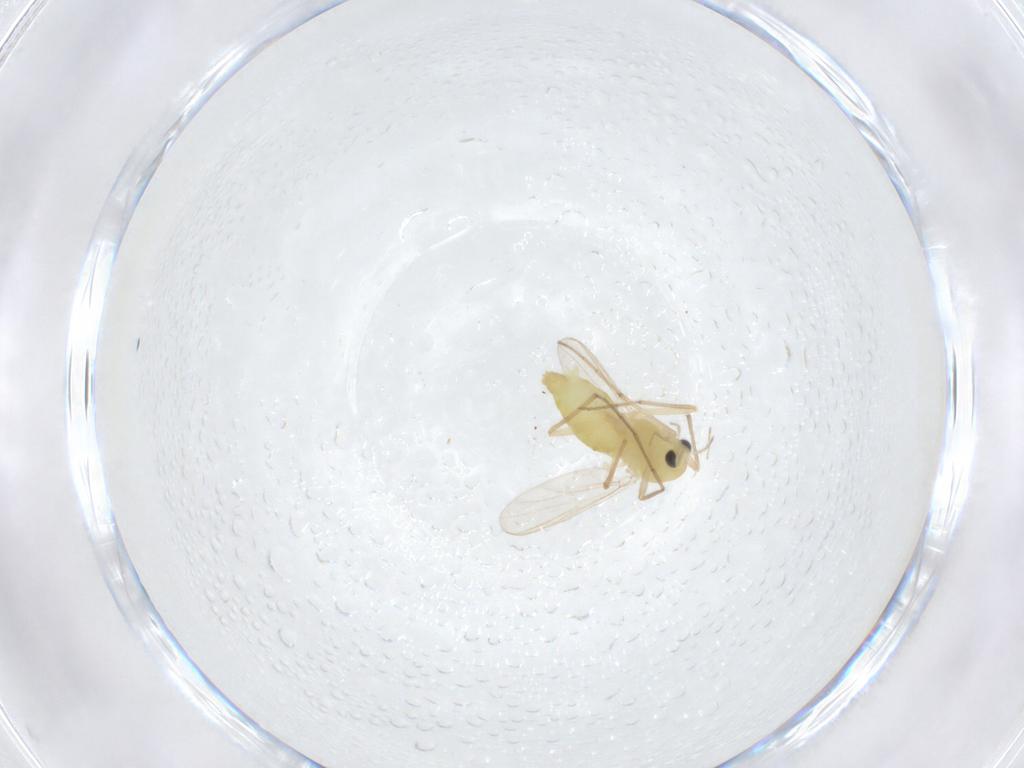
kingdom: Animalia
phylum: Arthropoda
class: Insecta
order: Diptera
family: Chironomidae
